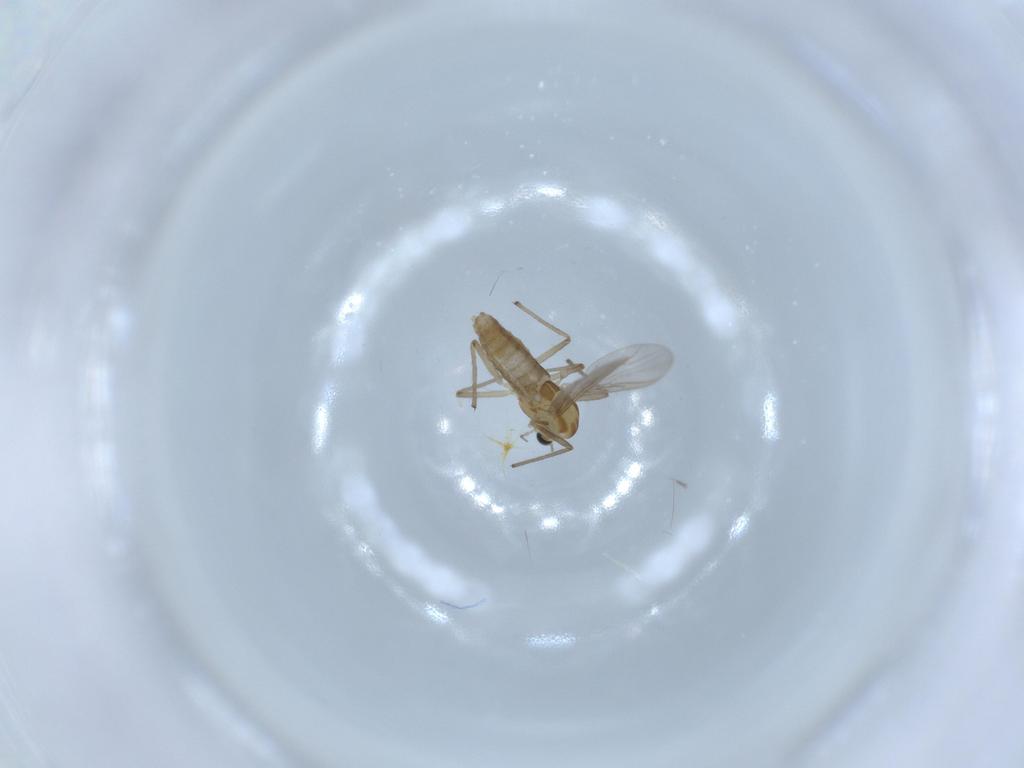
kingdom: Animalia
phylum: Arthropoda
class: Insecta
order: Diptera
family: Chironomidae
